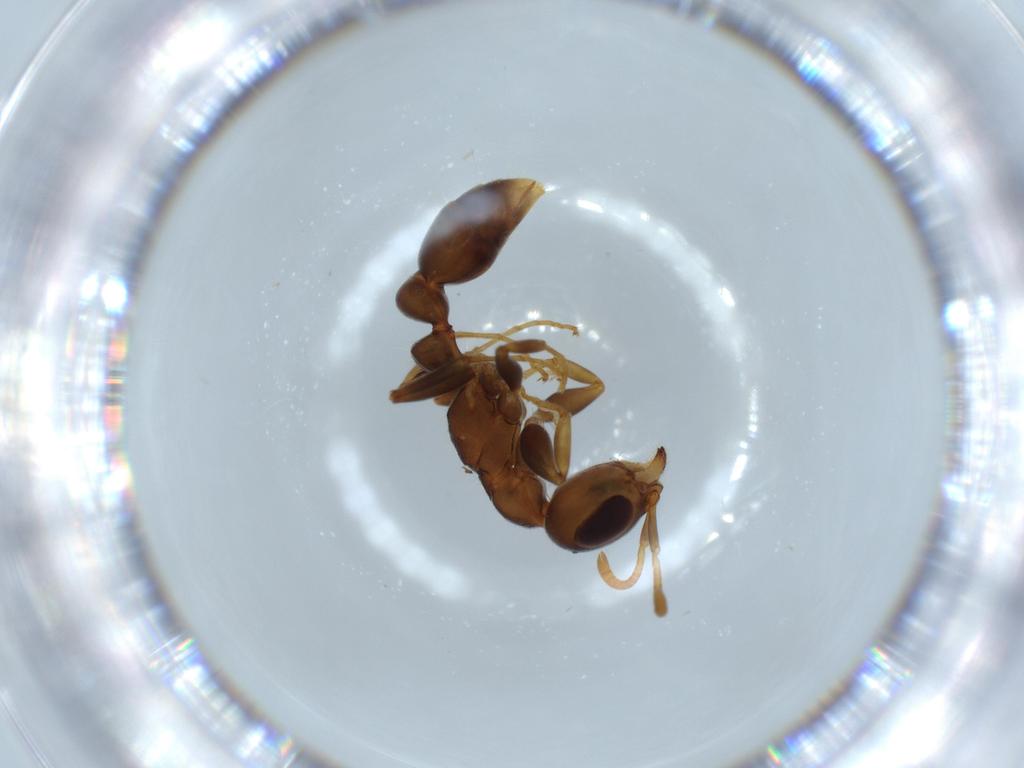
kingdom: Animalia
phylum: Arthropoda
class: Insecta
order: Hymenoptera
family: Formicidae
